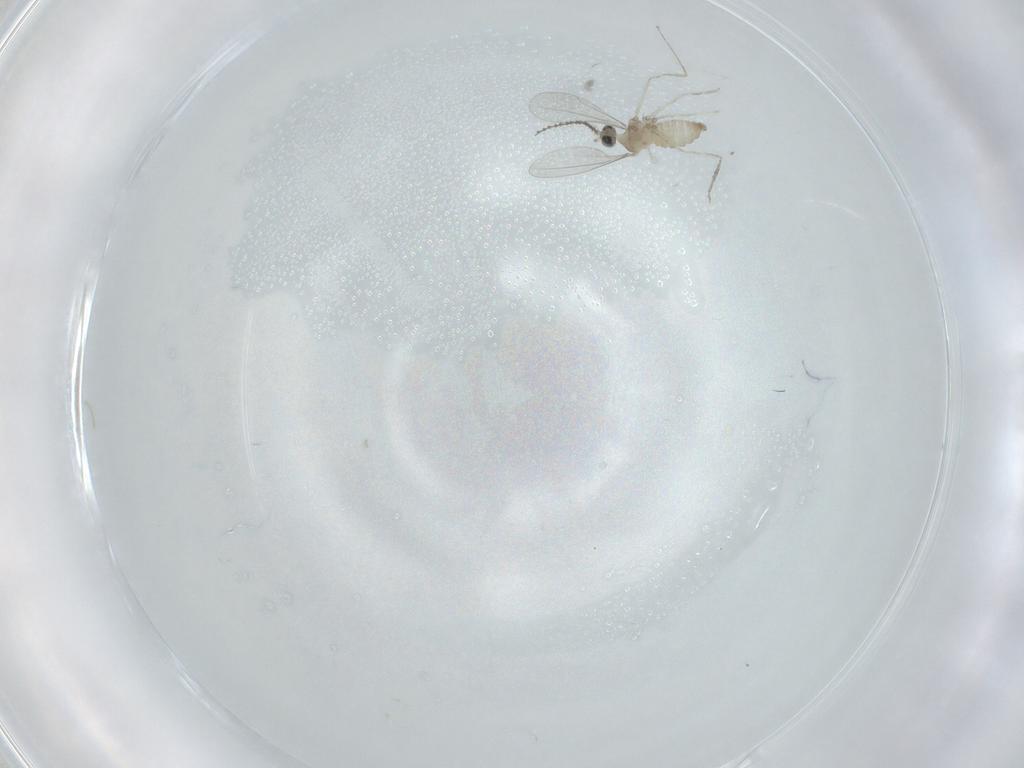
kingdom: Animalia
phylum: Arthropoda
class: Insecta
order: Diptera
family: Cecidomyiidae
